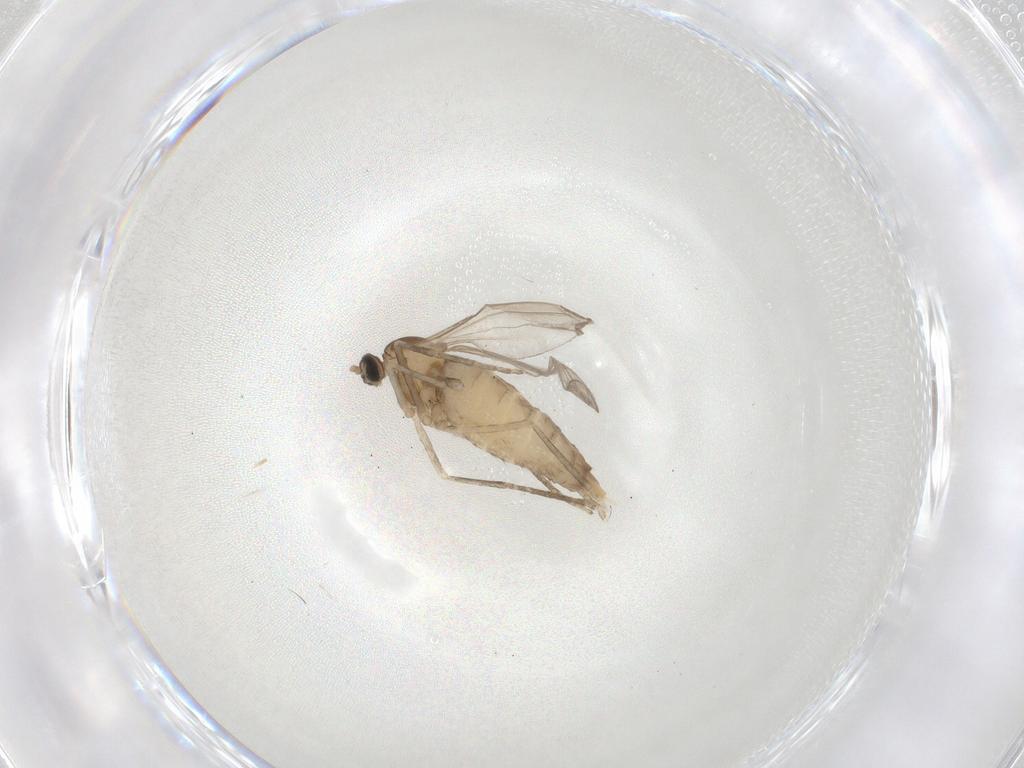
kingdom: Animalia
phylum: Arthropoda
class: Insecta
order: Diptera
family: Cecidomyiidae
